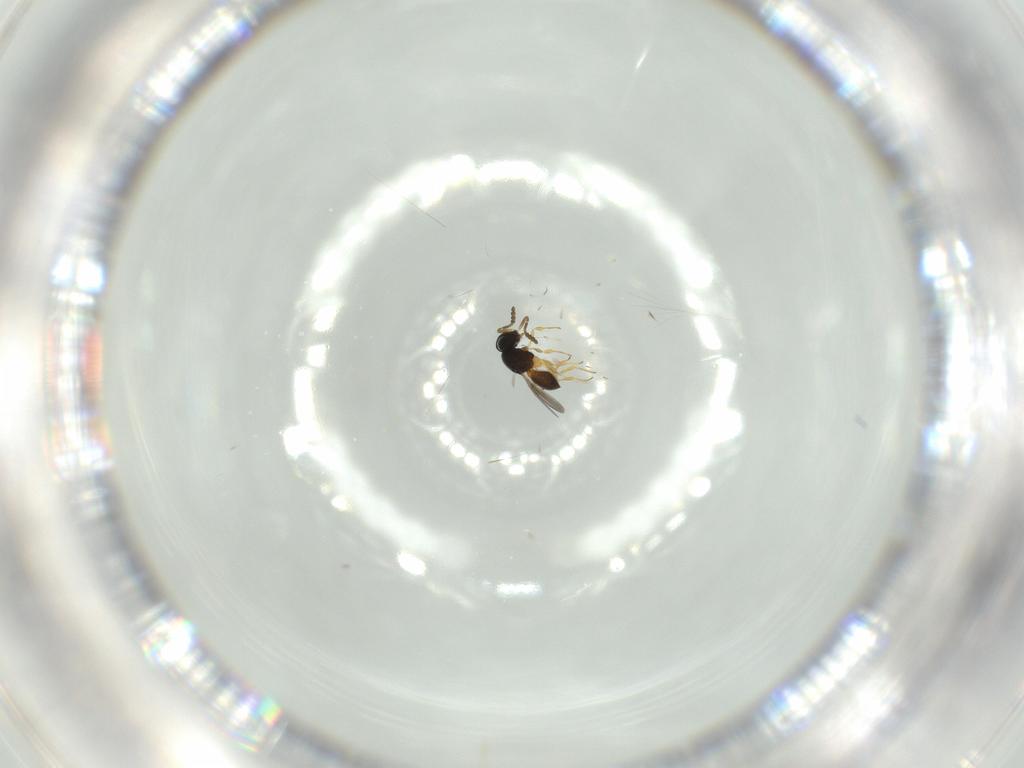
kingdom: Animalia
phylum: Arthropoda
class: Insecta
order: Hymenoptera
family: Scelionidae
